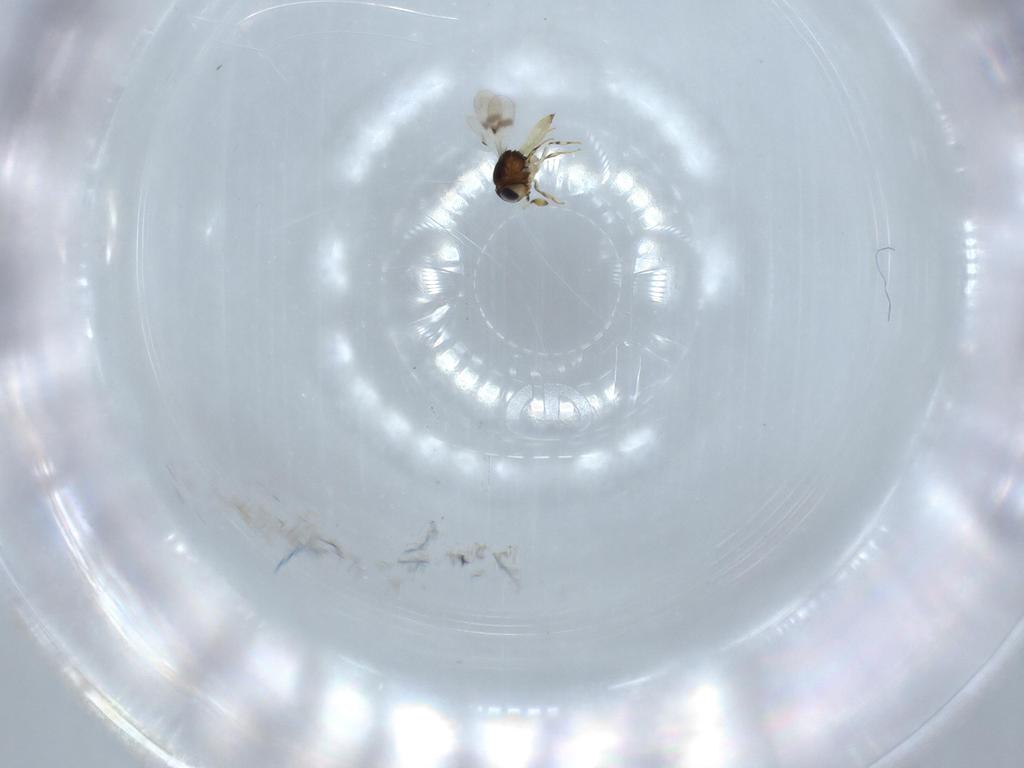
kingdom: Animalia
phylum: Arthropoda
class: Insecta
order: Hymenoptera
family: Scelionidae
